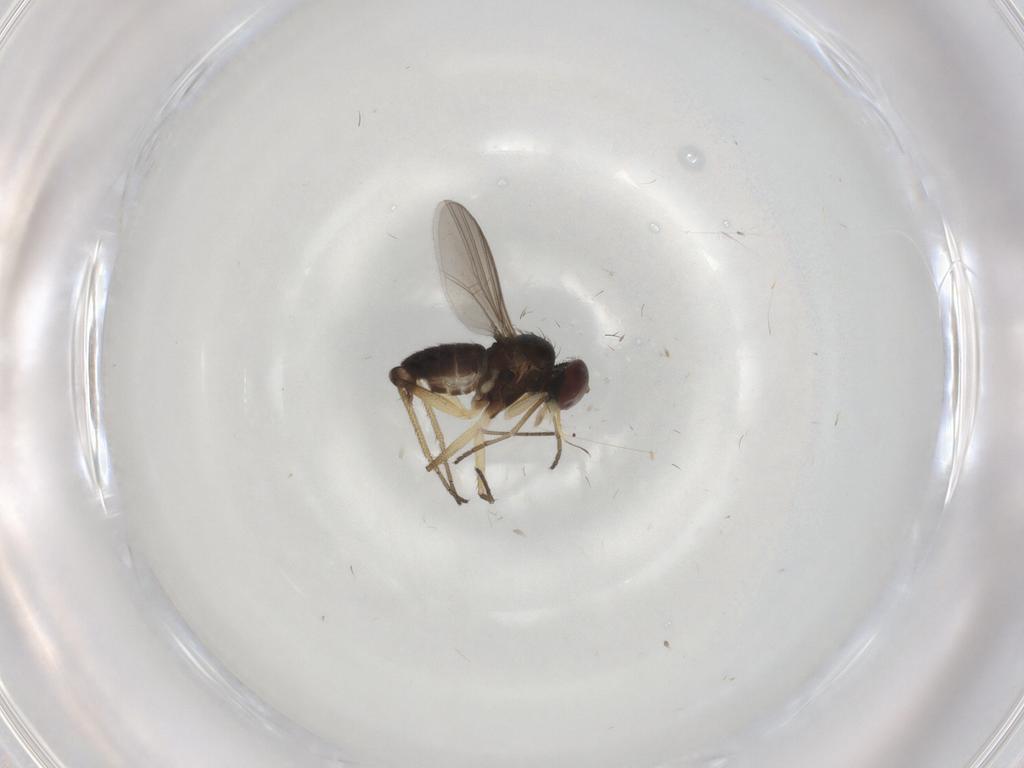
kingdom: Animalia
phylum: Arthropoda
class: Insecta
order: Diptera
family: Dolichopodidae
